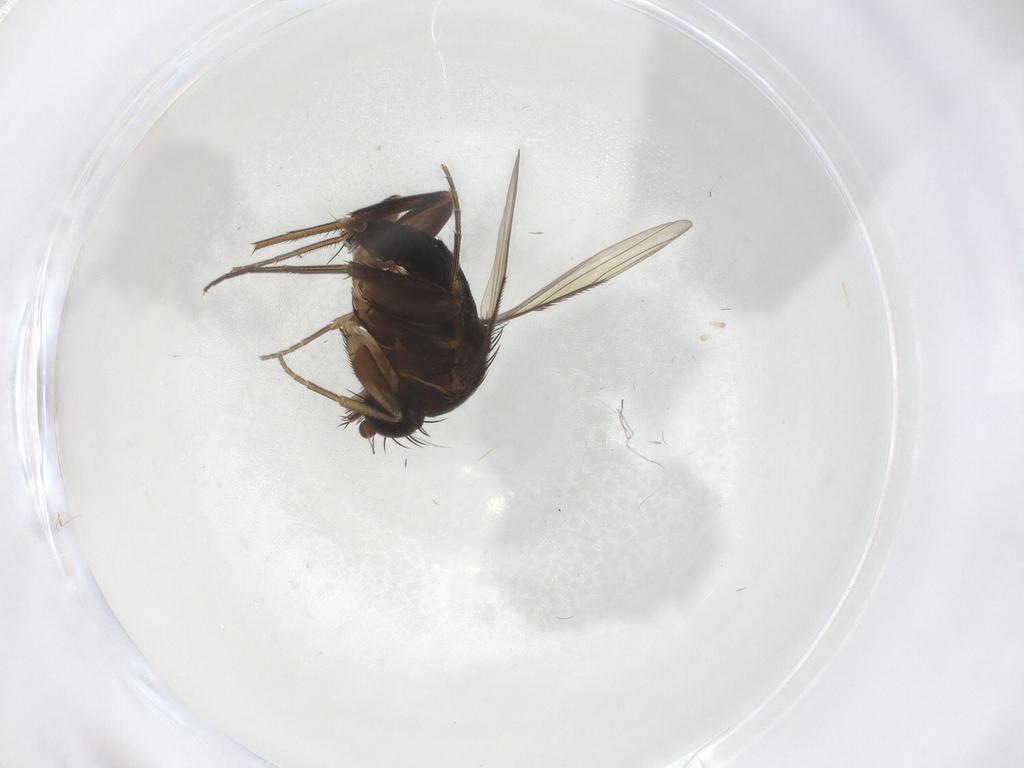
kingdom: Animalia
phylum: Arthropoda
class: Insecta
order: Diptera
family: Phoridae
